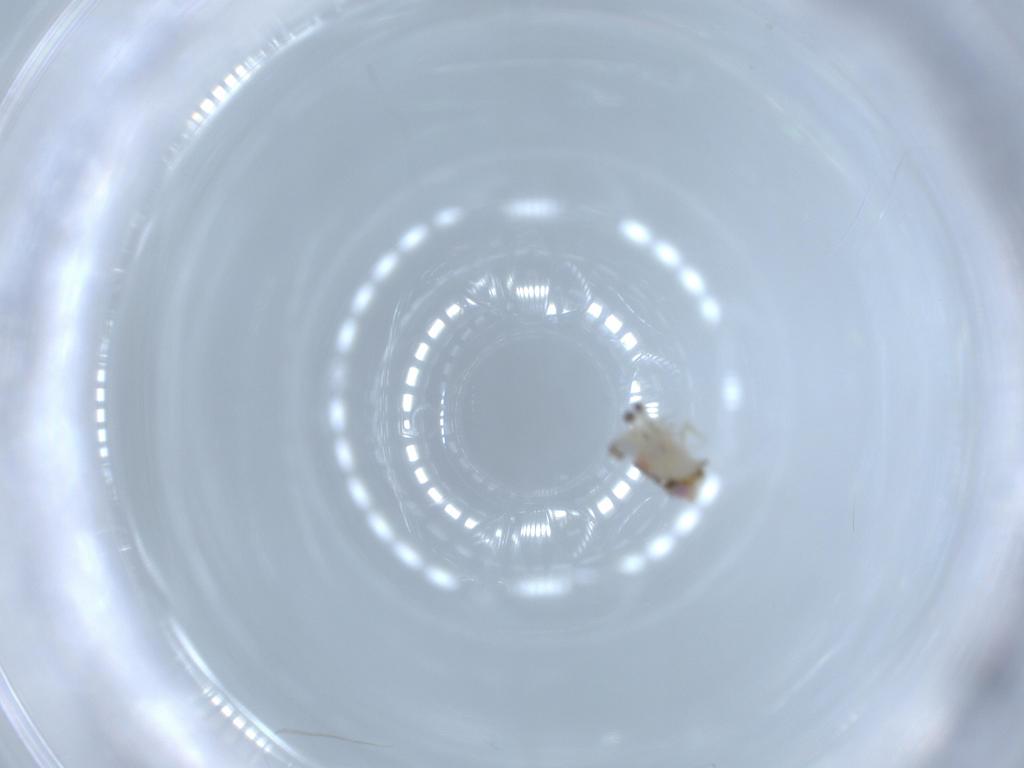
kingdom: Animalia
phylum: Arthropoda
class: Insecta
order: Hemiptera
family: Nogodinidae
